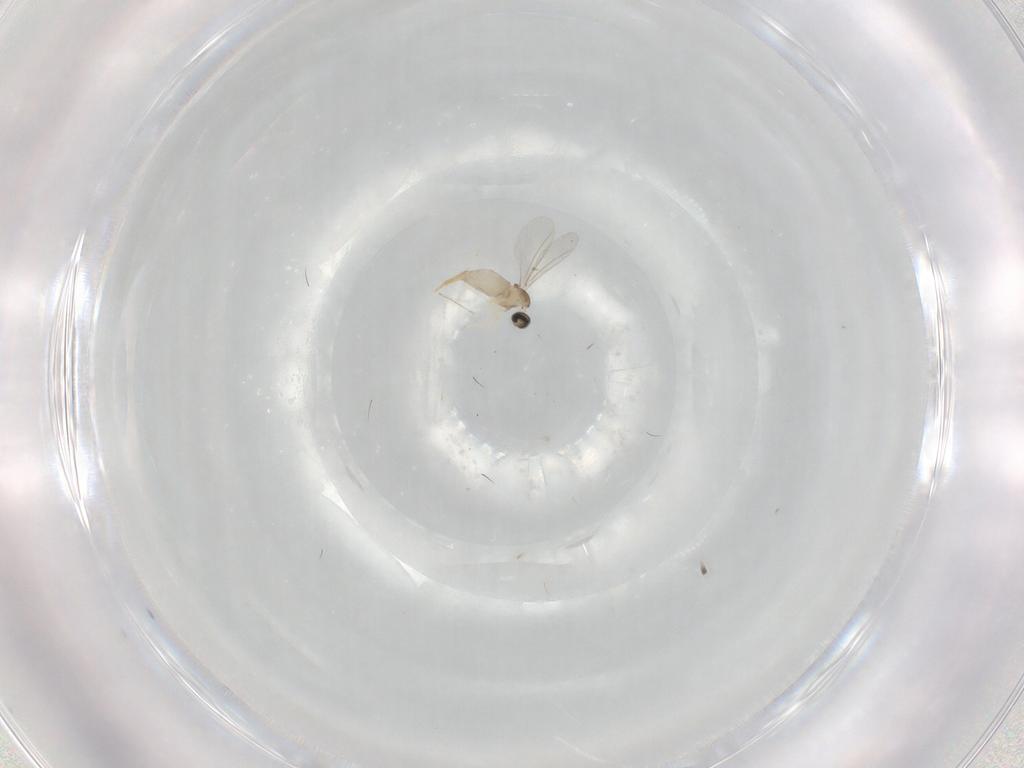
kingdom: Animalia
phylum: Arthropoda
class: Insecta
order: Diptera
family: Cecidomyiidae
